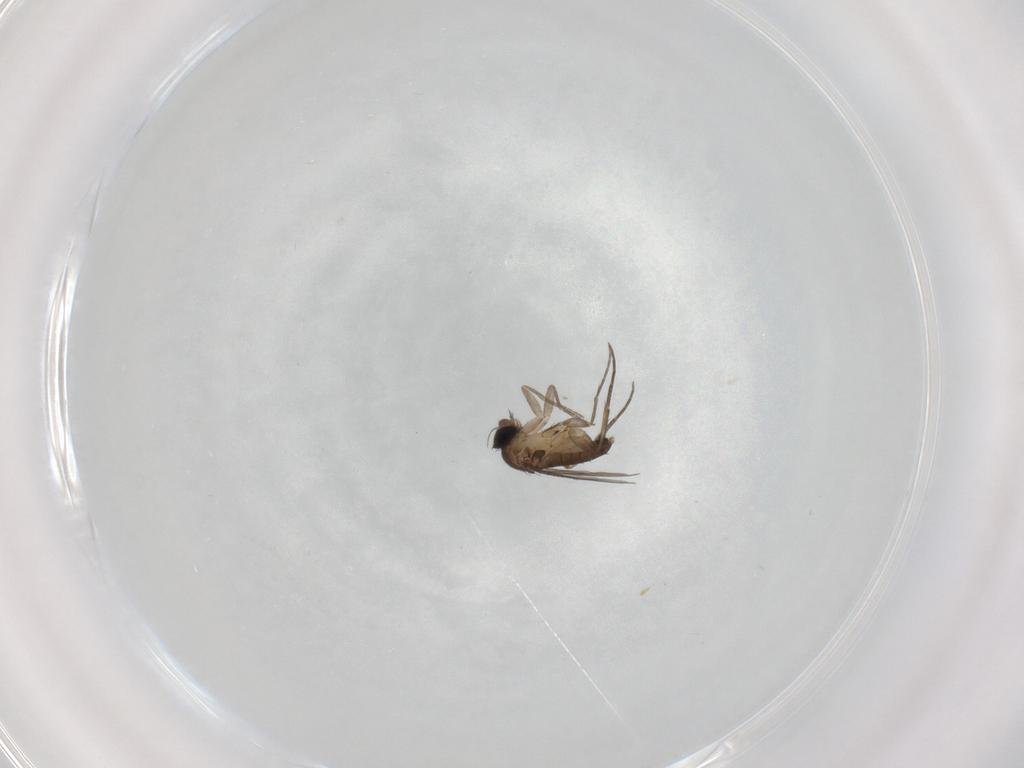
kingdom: Animalia
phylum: Arthropoda
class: Insecta
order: Diptera
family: Phoridae
